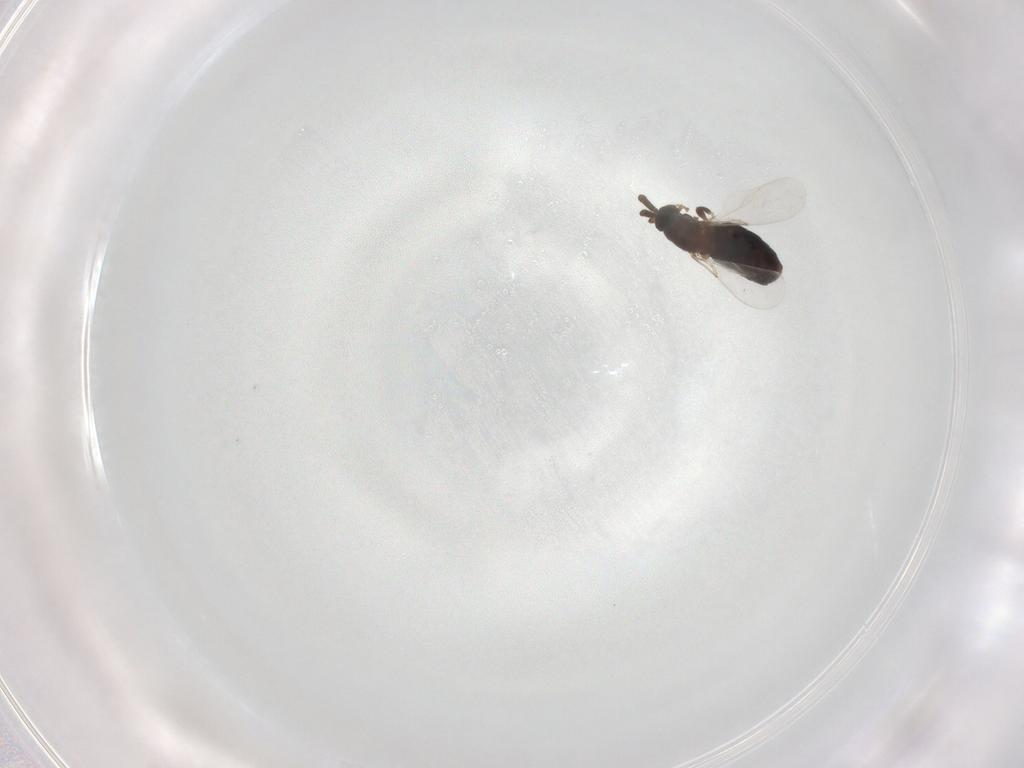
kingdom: Animalia
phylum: Arthropoda
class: Insecta
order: Diptera
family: Scatopsidae
